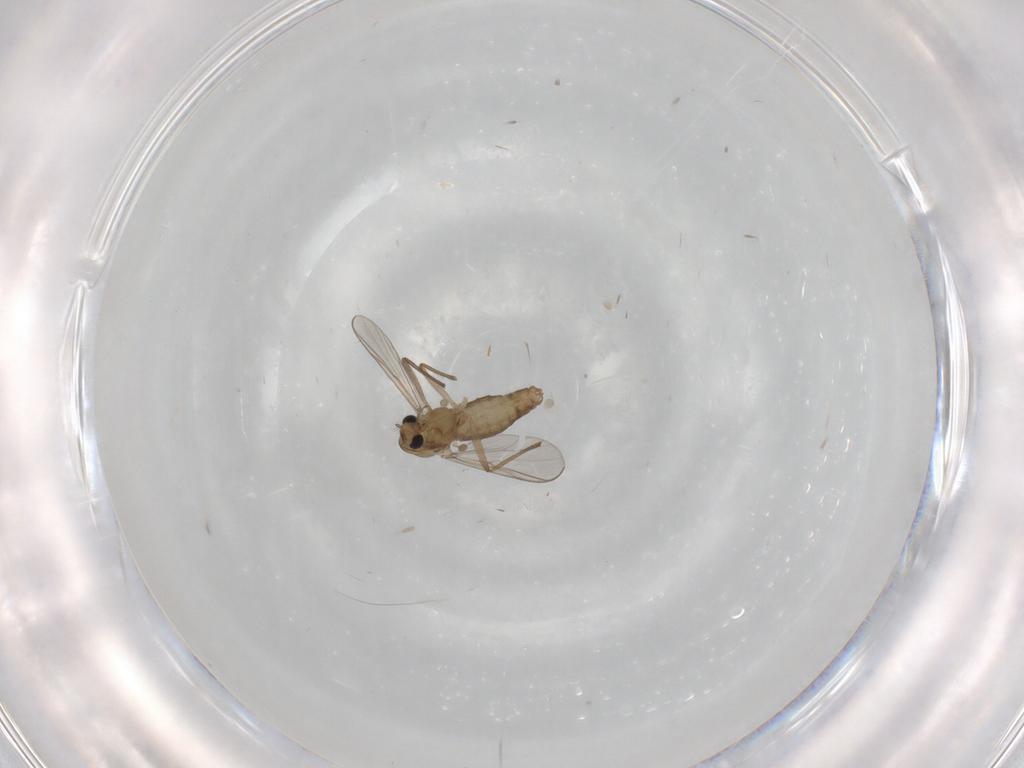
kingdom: Animalia
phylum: Arthropoda
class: Insecta
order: Diptera
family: Chironomidae
